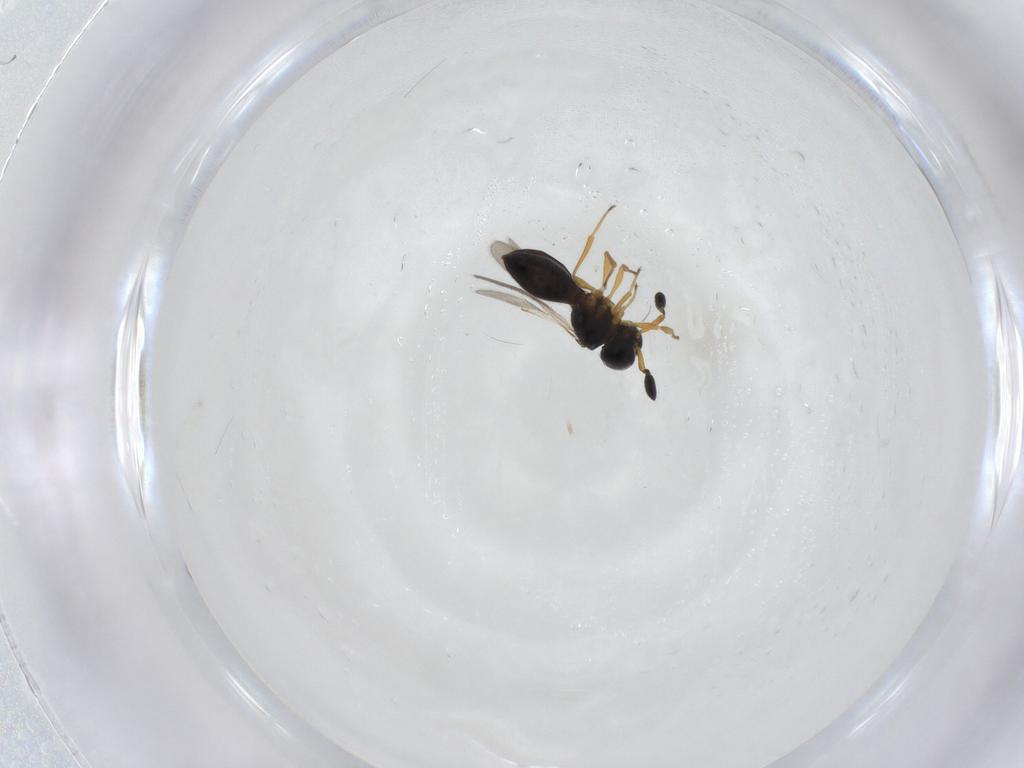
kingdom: Animalia
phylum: Arthropoda
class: Insecta
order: Hymenoptera
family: Scelionidae
